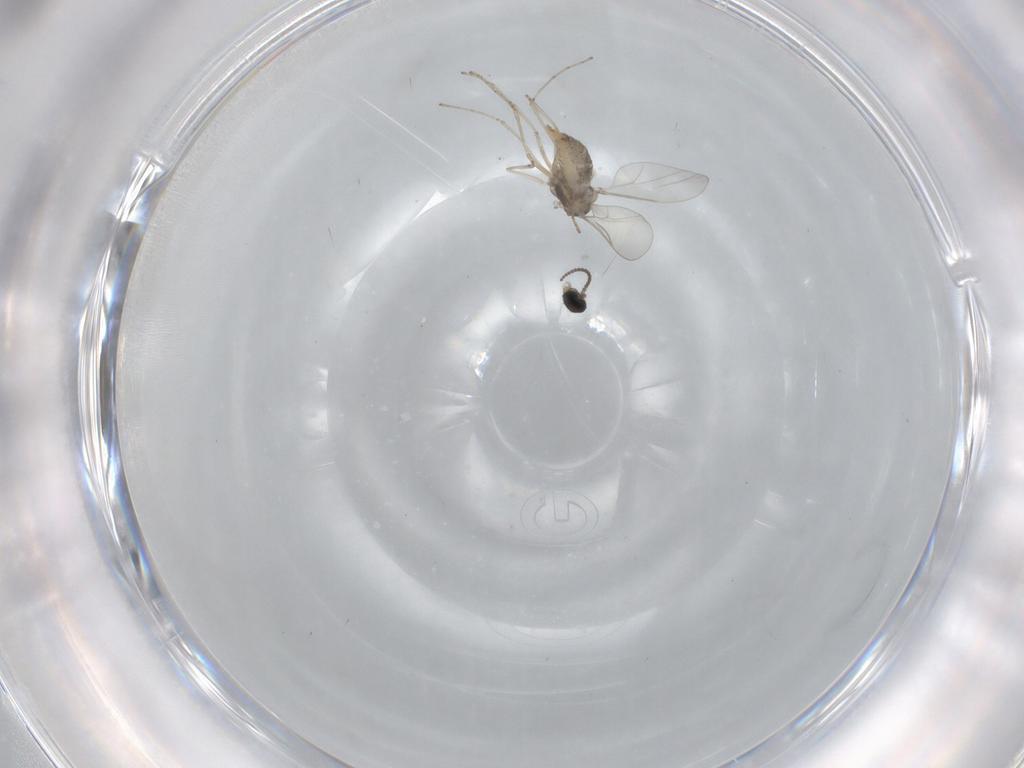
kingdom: Animalia
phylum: Arthropoda
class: Insecta
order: Diptera
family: Cecidomyiidae
